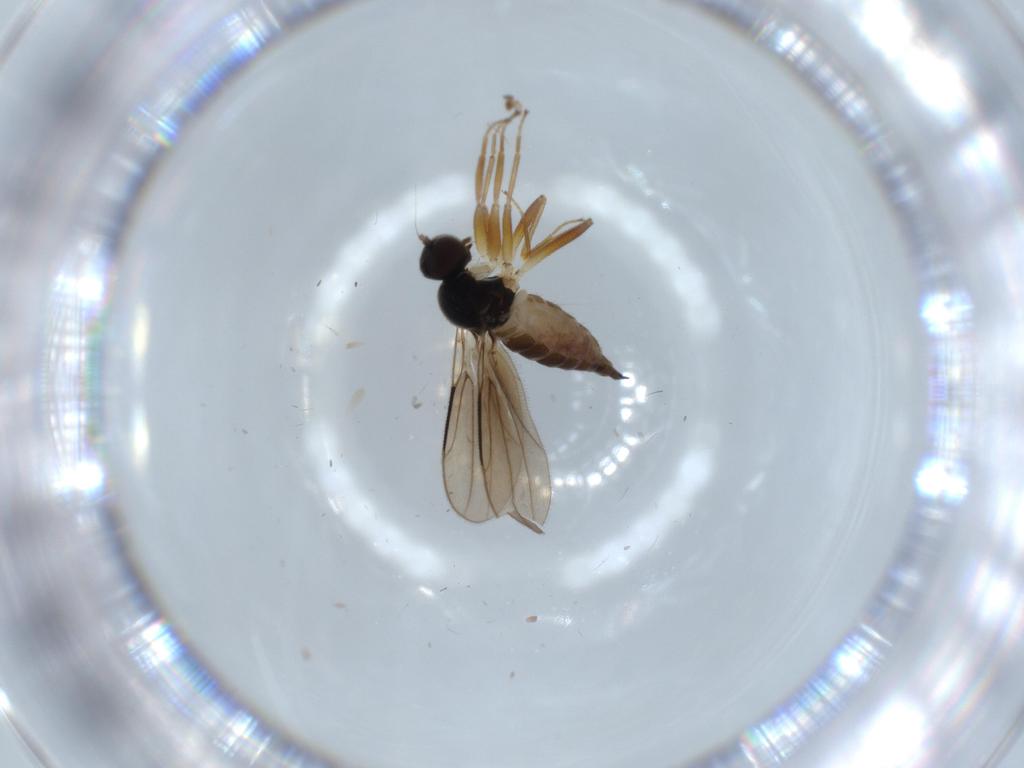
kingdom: Animalia
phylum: Arthropoda
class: Insecta
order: Diptera
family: Hybotidae
